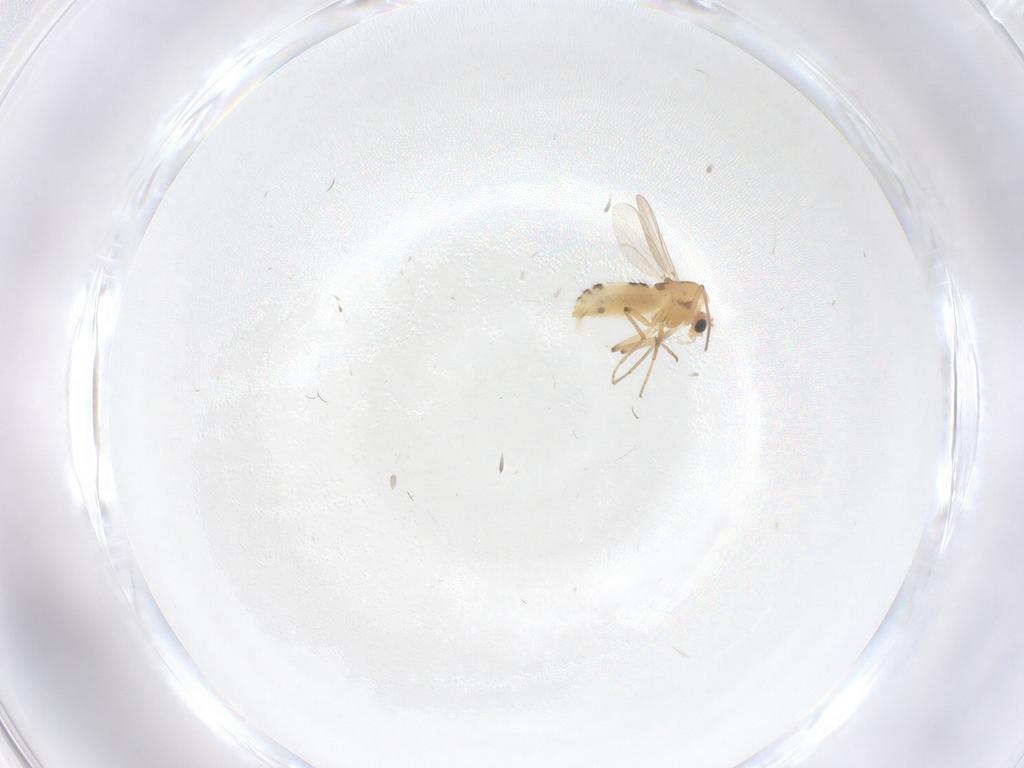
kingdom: Animalia
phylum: Arthropoda
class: Insecta
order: Diptera
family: Chironomidae
